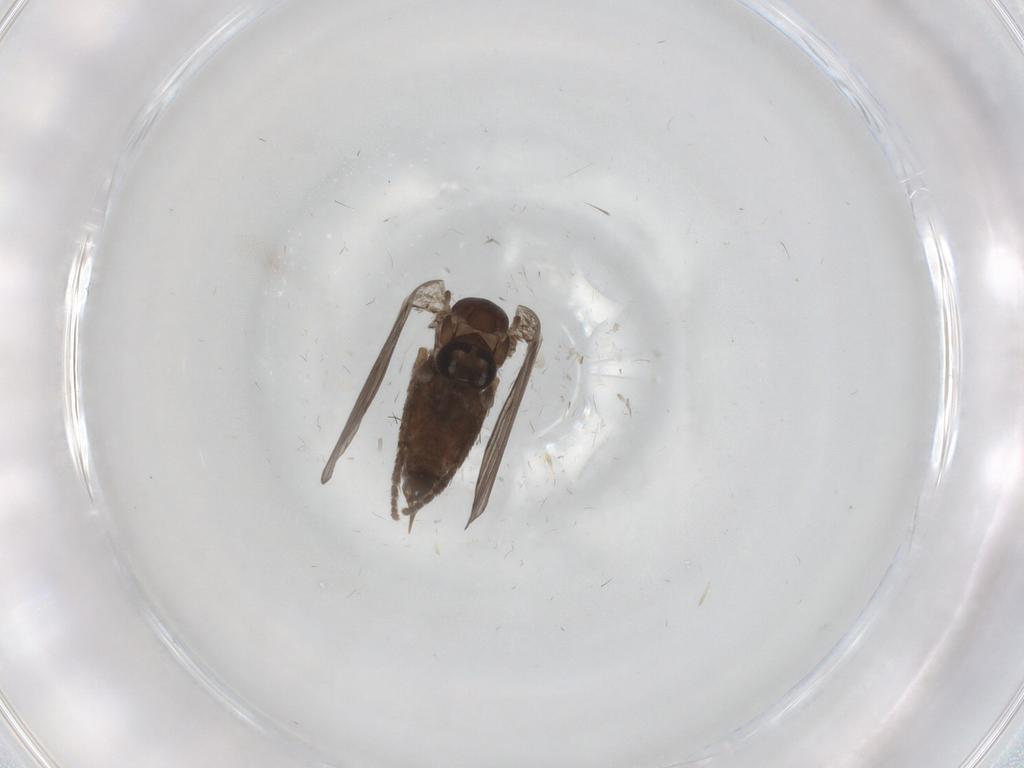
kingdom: Animalia
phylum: Arthropoda
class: Insecta
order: Diptera
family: Psychodidae
